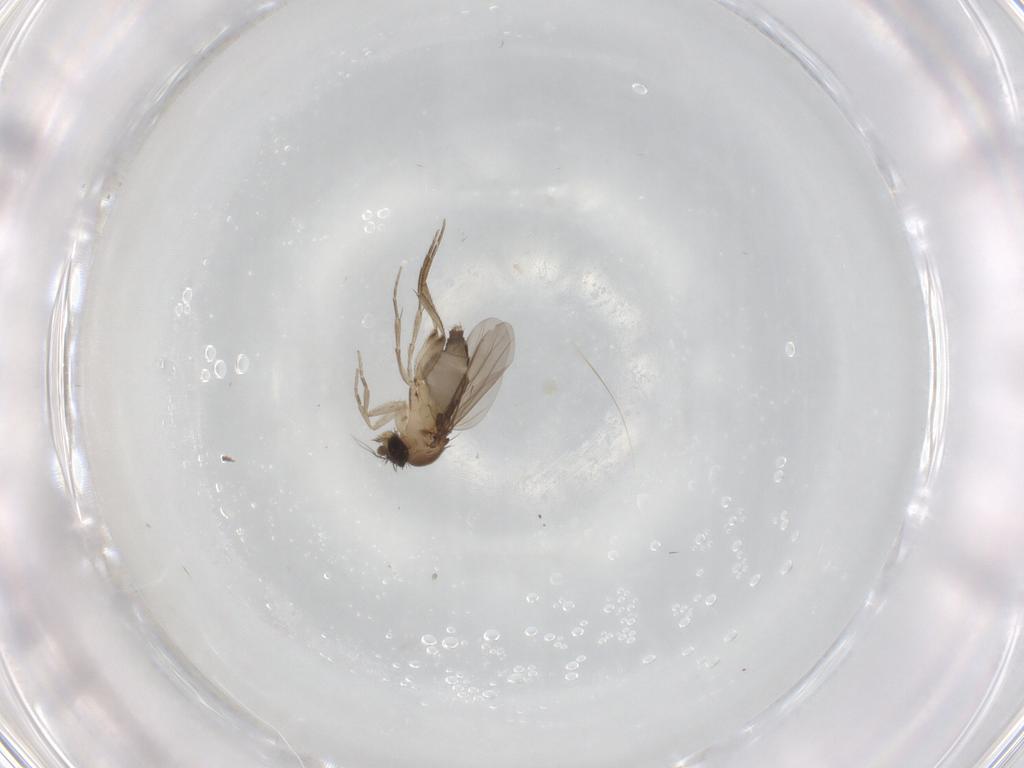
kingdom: Animalia
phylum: Arthropoda
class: Insecta
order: Diptera
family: Phoridae
